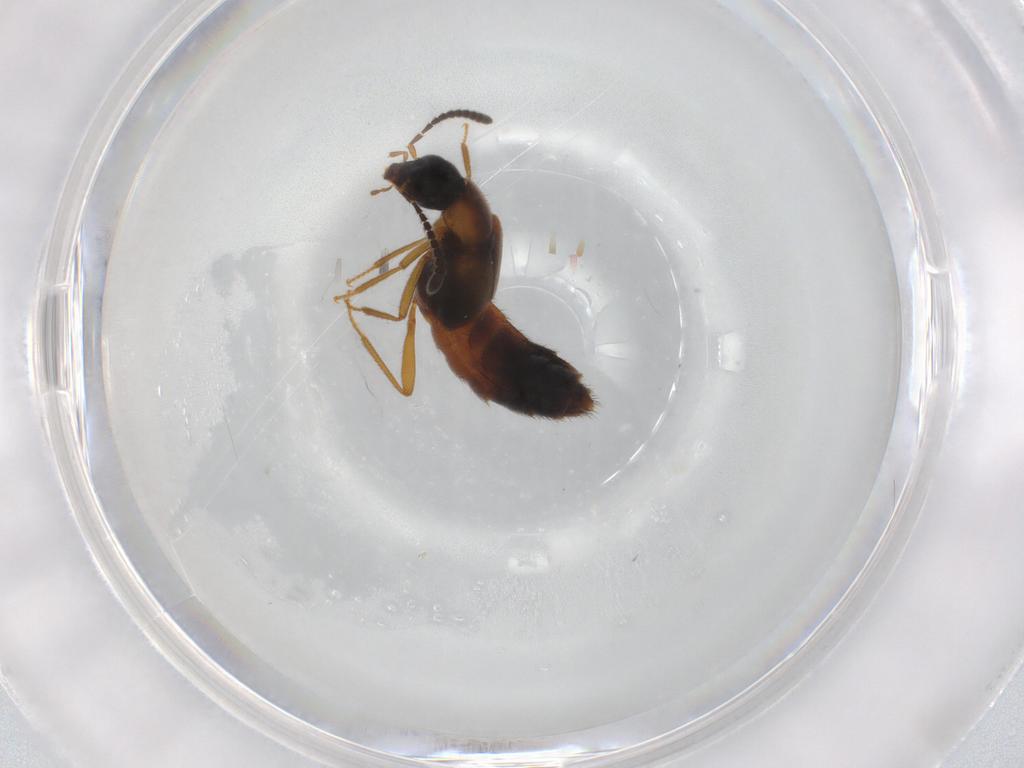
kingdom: Animalia
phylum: Arthropoda
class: Insecta
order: Coleoptera
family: Staphylinidae
